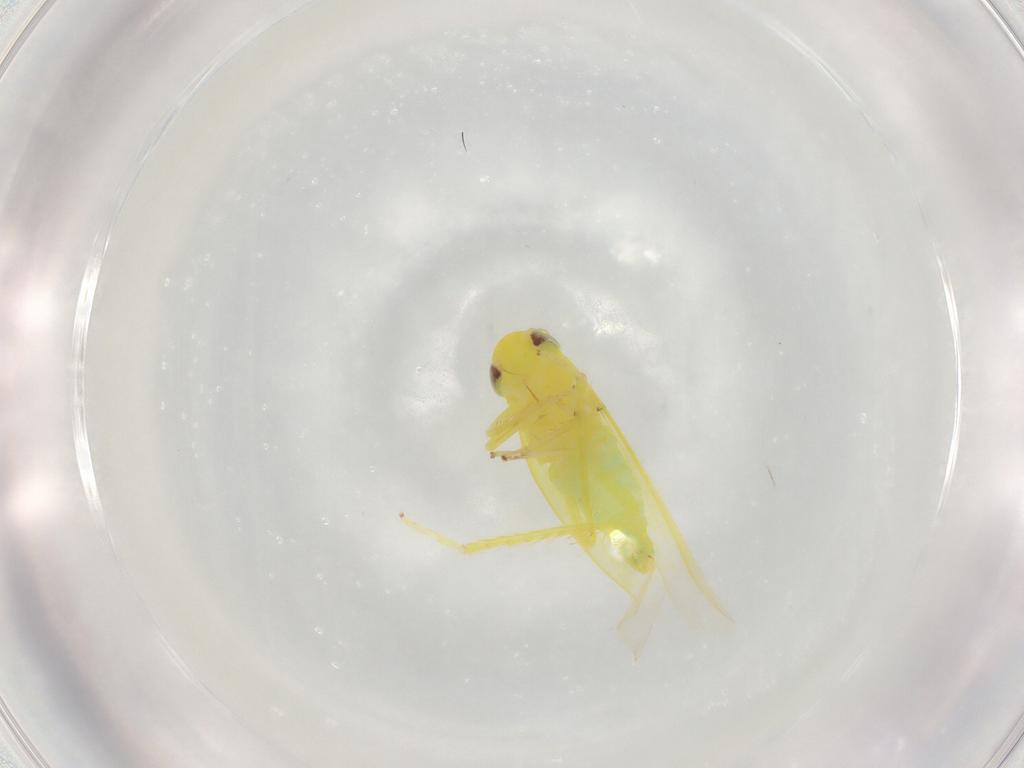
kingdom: Animalia
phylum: Arthropoda
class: Insecta
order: Hemiptera
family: Cicadellidae
